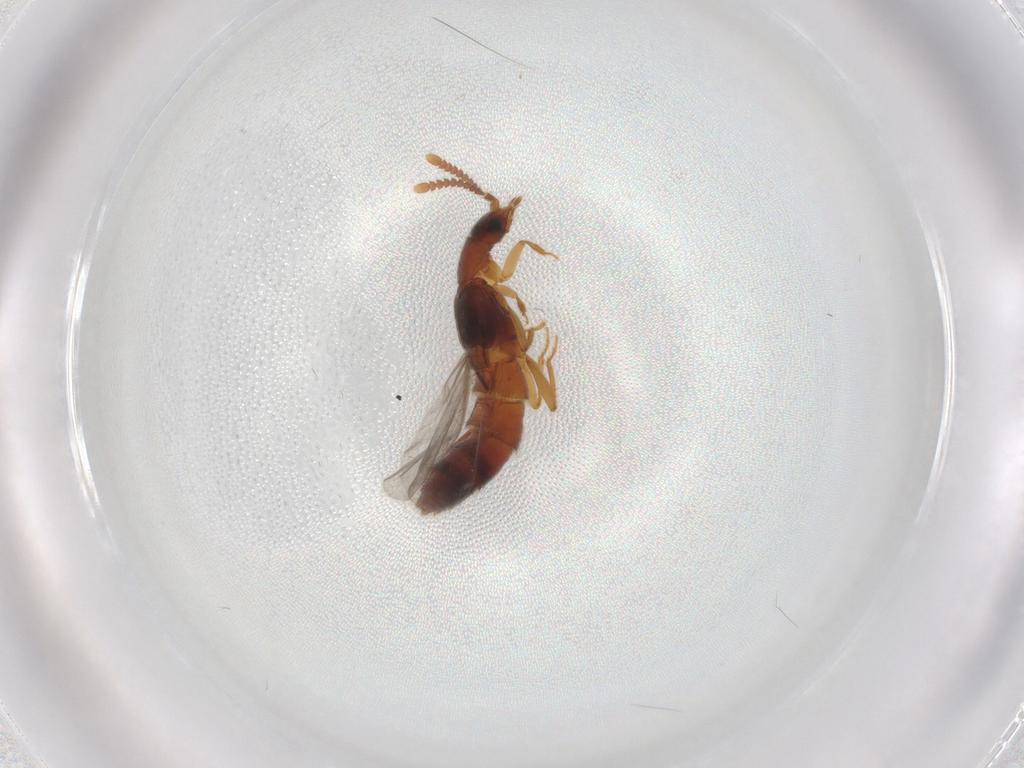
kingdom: Animalia
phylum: Arthropoda
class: Insecta
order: Coleoptera
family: Staphylinidae
